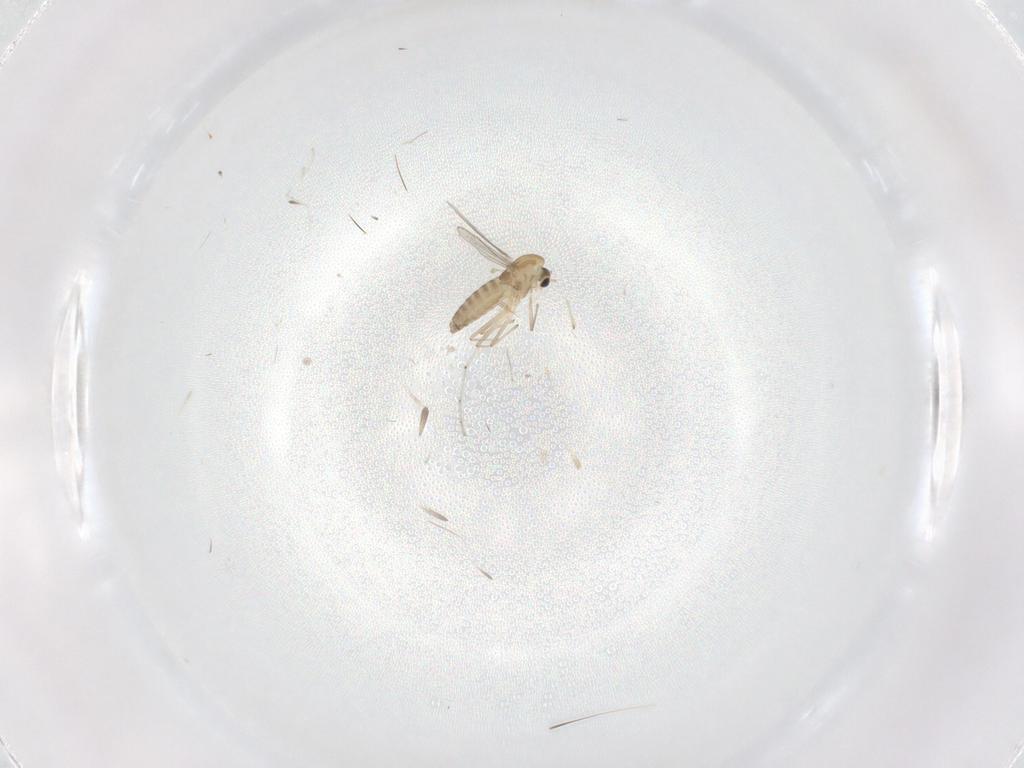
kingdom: Animalia
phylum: Arthropoda
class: Insecta
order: Diptera
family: Chironomidae
